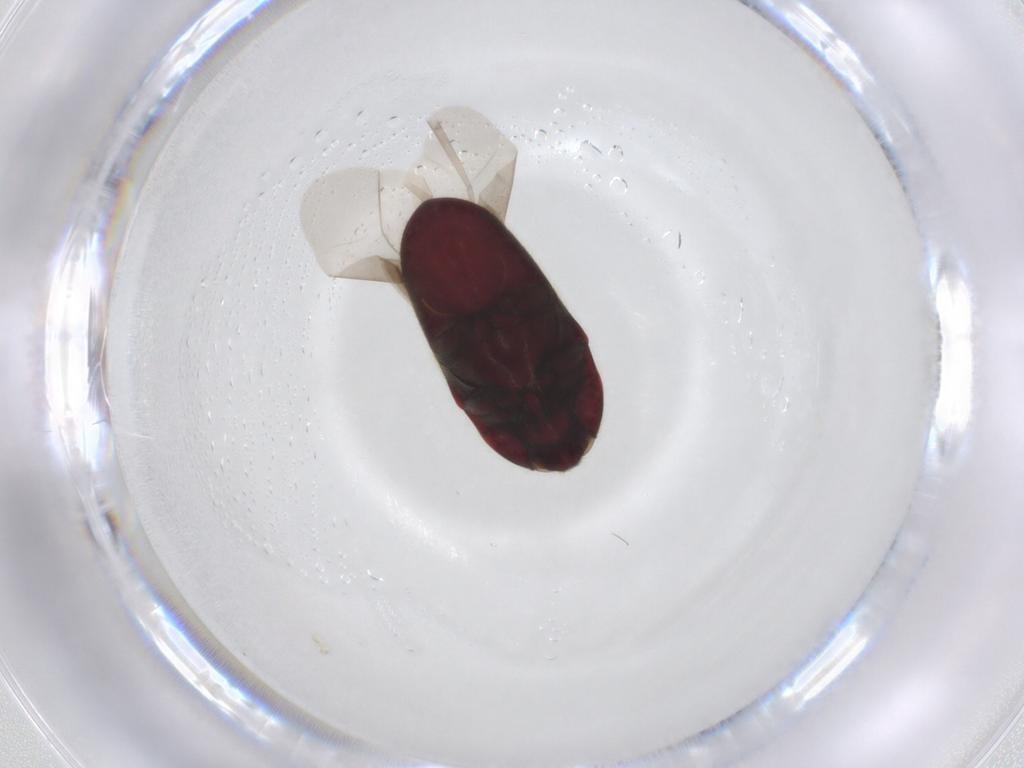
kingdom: Animalia
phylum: Arthropoda
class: Insecta
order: Coleoptera
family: Throscidae
